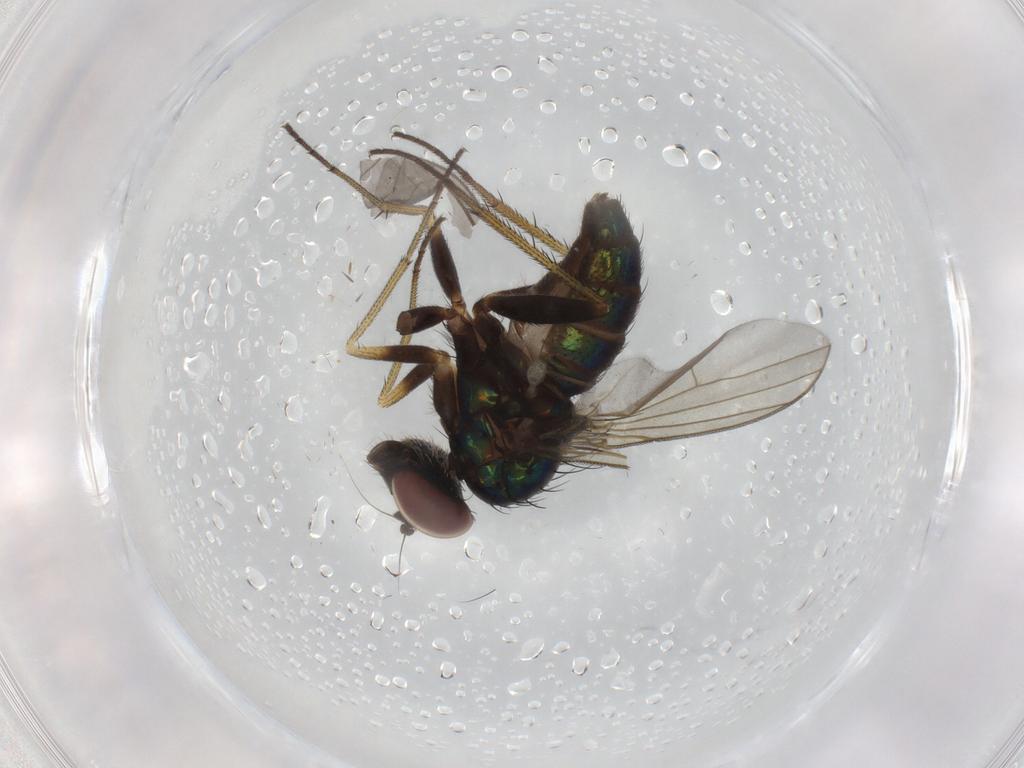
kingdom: Animalia
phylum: Arthropoda
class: Insecta
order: Diptera
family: Dolichopodidae
